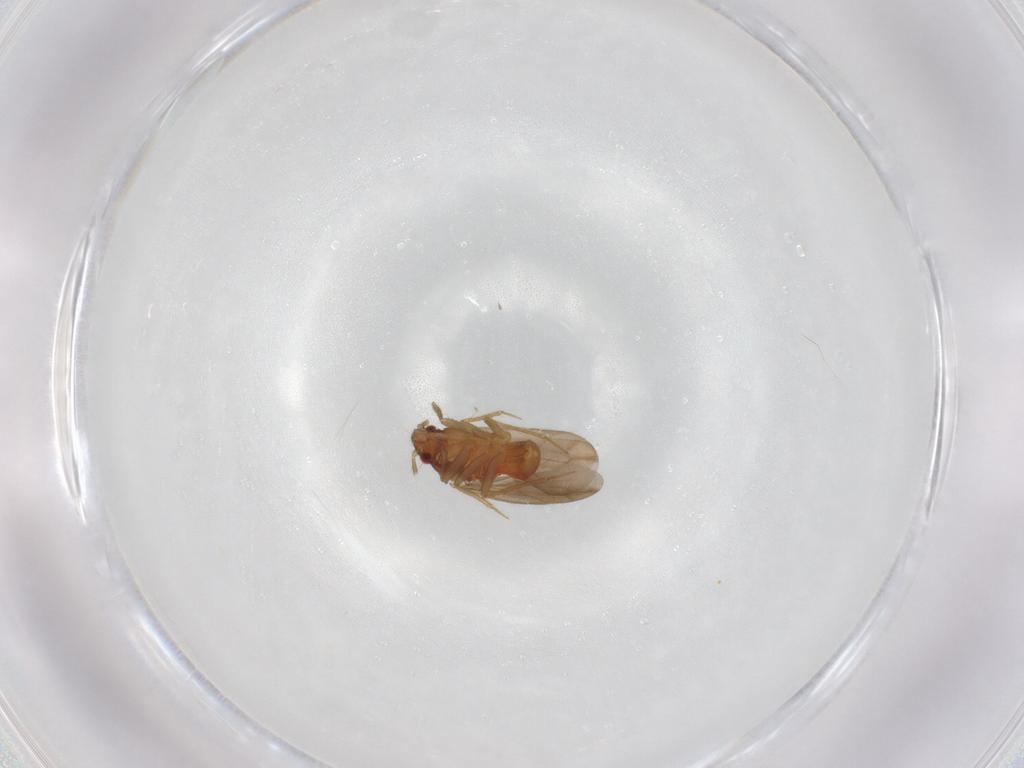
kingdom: Animalia
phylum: Arthropoda
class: Insecta
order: Hemiptera
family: Ceratocombidae
